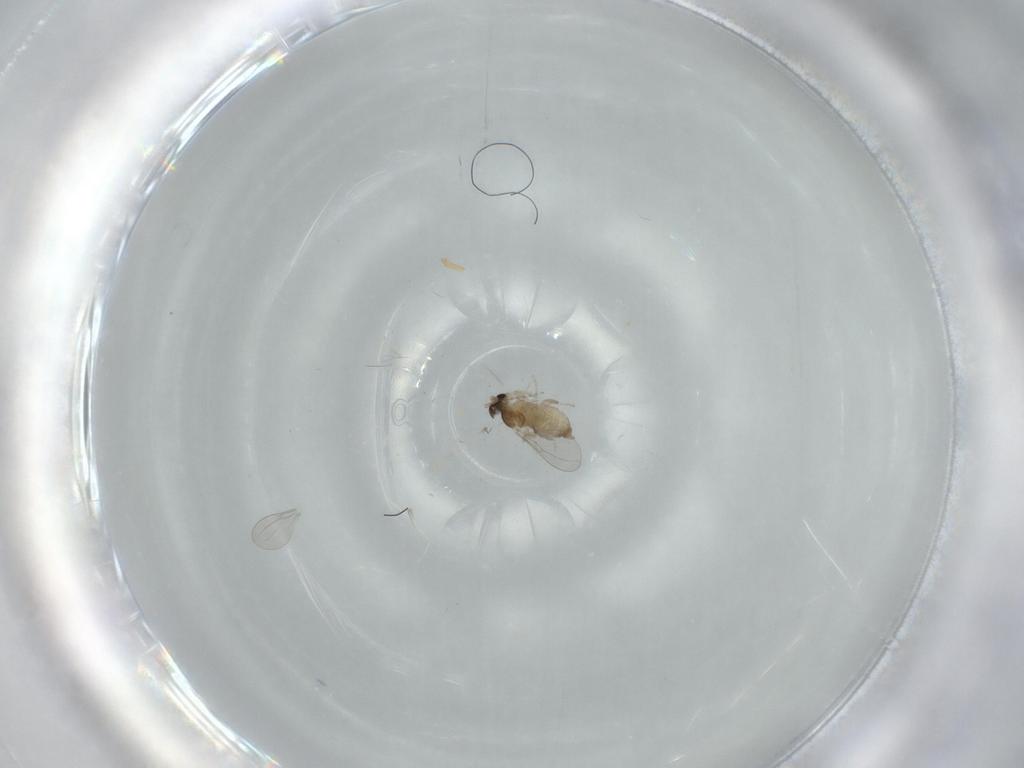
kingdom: Animalia
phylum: Arthropoda
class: Insecta
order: Diptera
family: Cecidomyiidae
